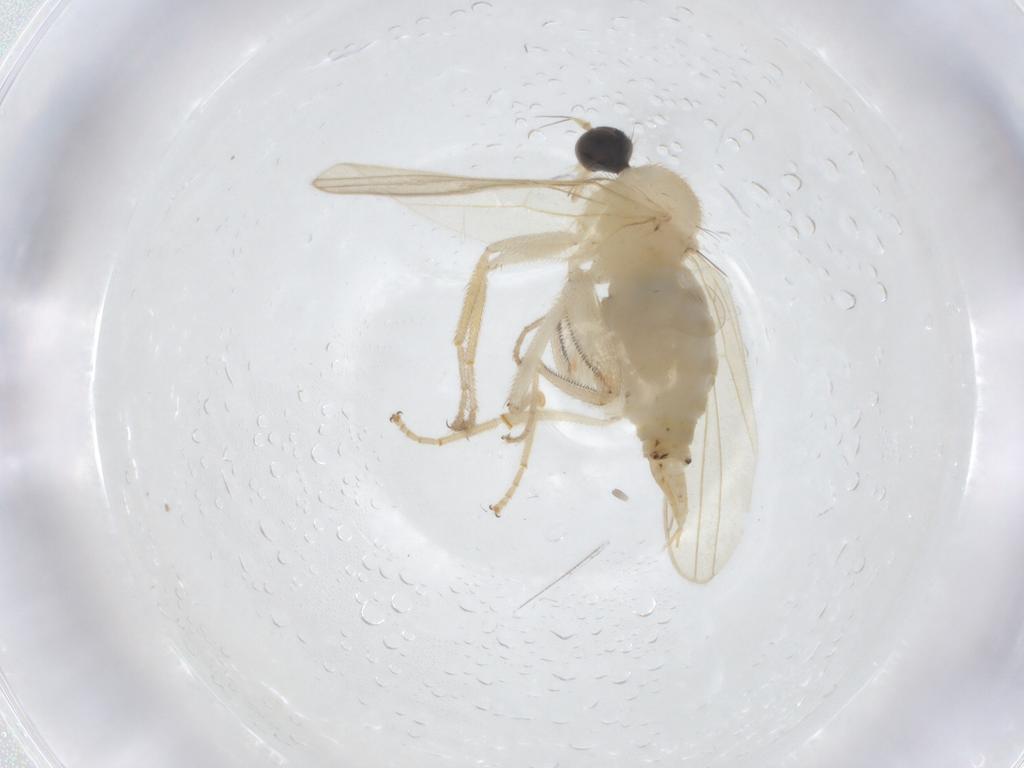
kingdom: Animalia
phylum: Arthropoda
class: Insecta
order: Diptera
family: Hybotidae
